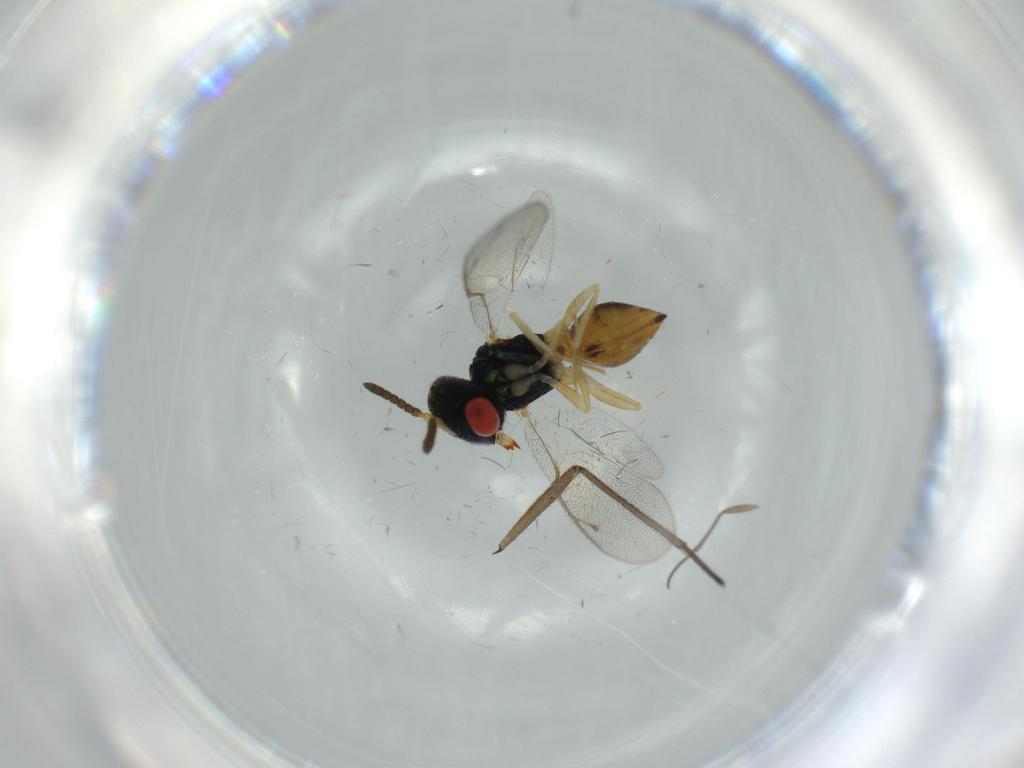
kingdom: Animalia
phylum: Arthropoda
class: Insecta
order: Hymenoptera
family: Pteromalidae
